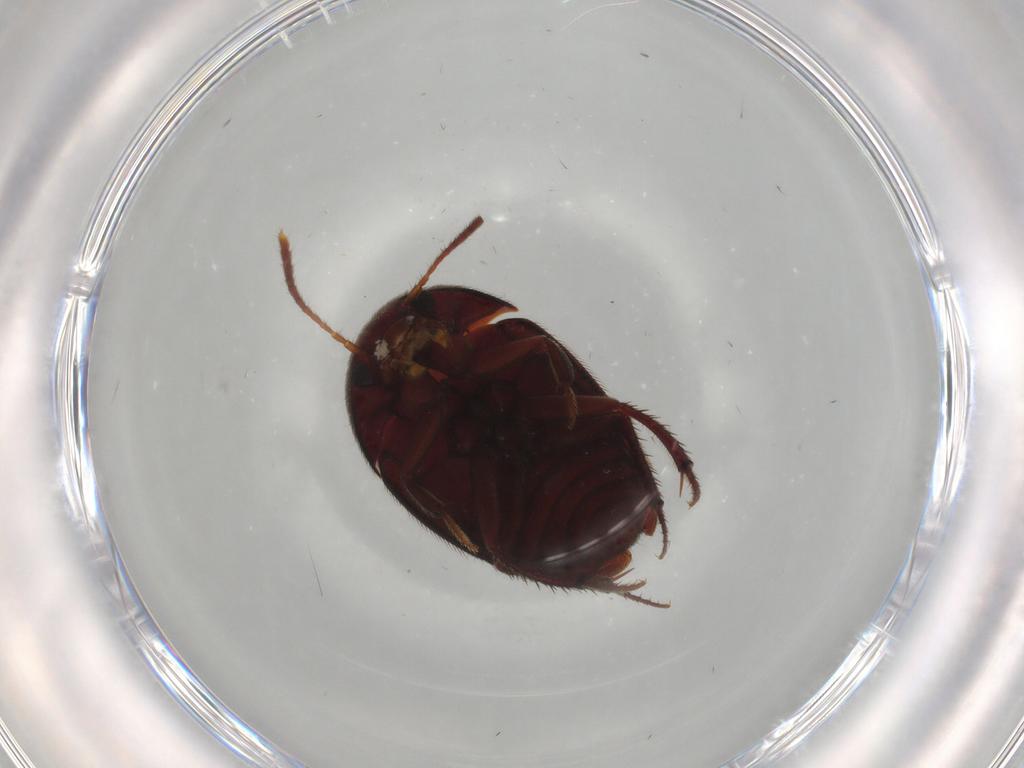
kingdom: Animalia
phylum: Arthropoda
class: Insecta
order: Coleoptera
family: Leiodidae
